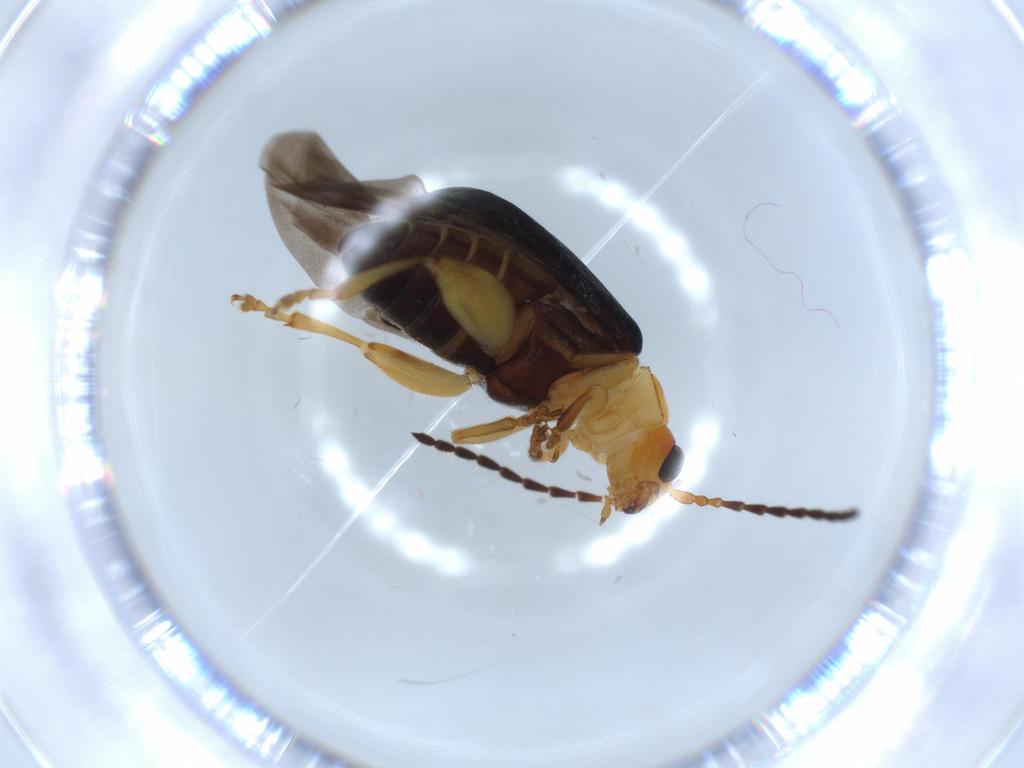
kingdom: Animalia
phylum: Arthropoda
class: Insecta
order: Coleoptera
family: Chrysomelidae
